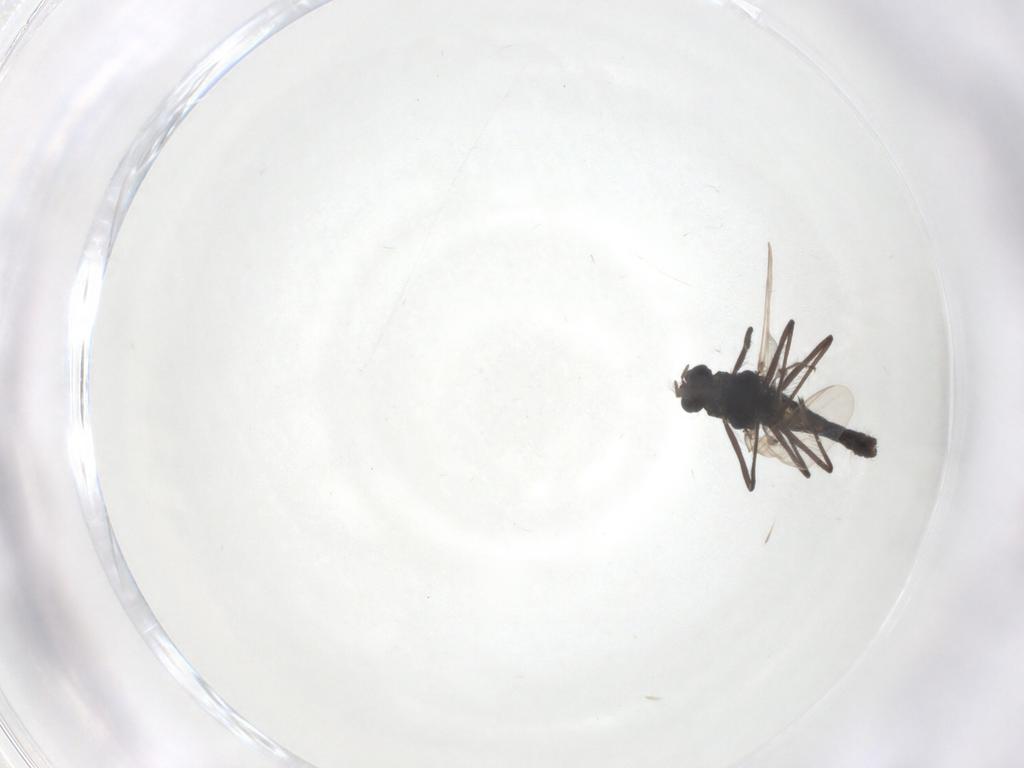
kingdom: Animalia
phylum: Arthropoda
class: Insecta
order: Diptera
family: Chironomidae
